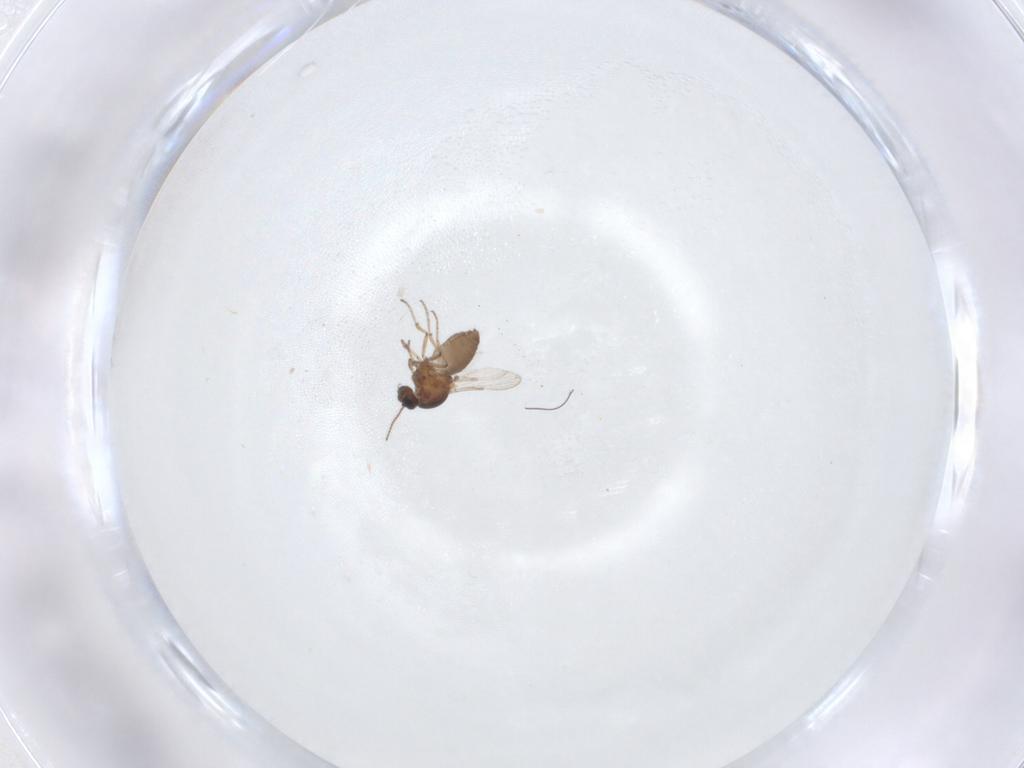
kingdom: Animalia
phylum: Arthropoda
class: Insecta
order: Diptera
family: Ceratopogonidae
